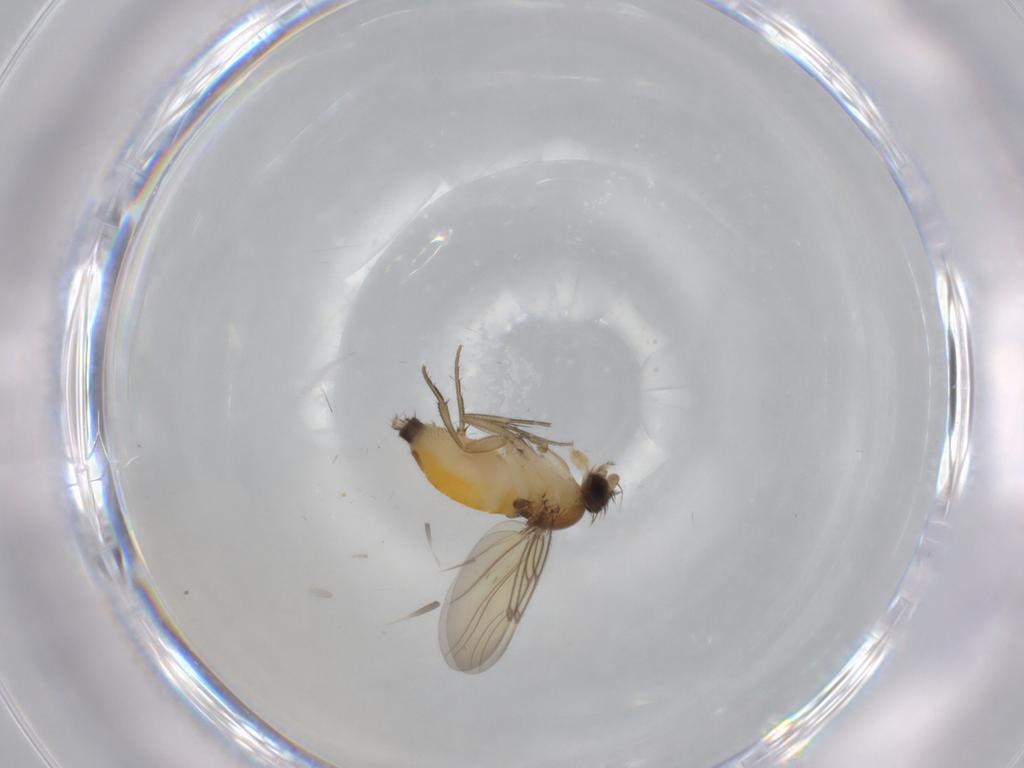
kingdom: Animalia
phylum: Arthropoda
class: Insecta
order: Diptera
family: Phoridae
